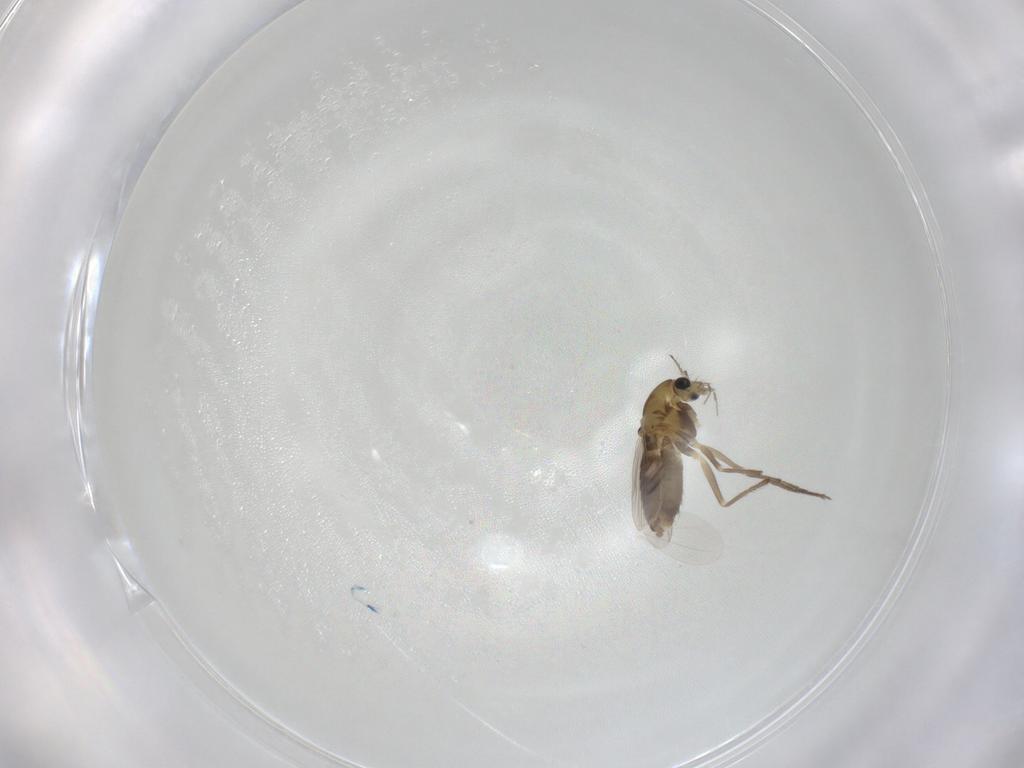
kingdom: Animalia
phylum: Arthropoda
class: Insecta
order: Diptera
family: Chironomidae
